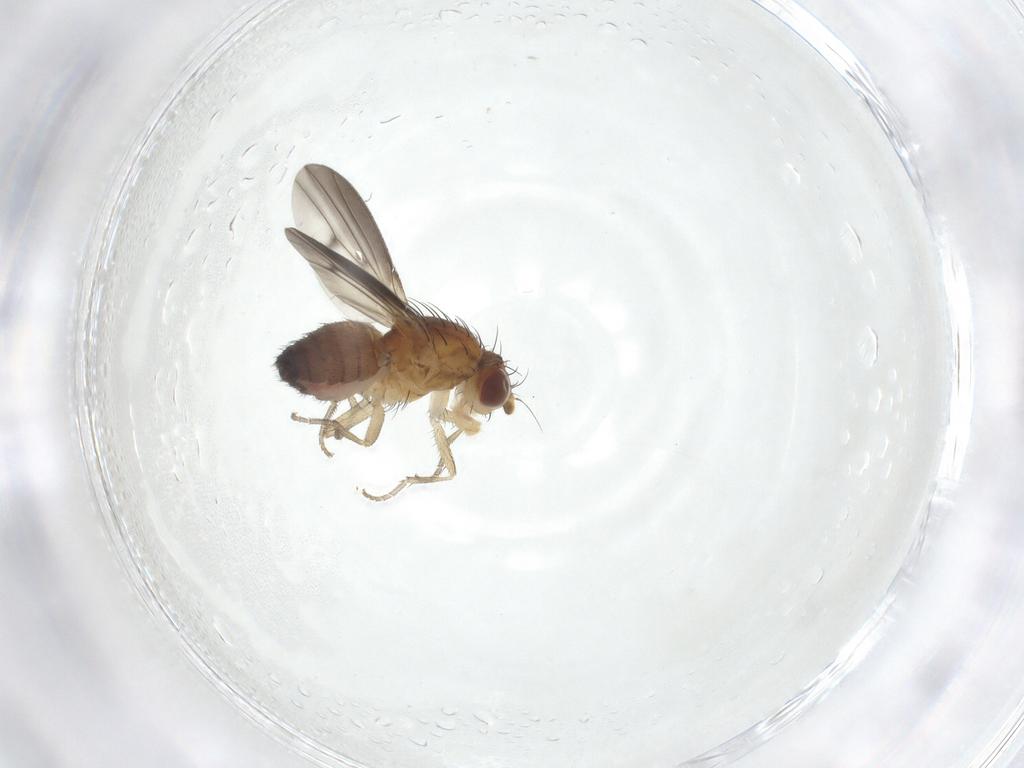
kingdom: Animalia
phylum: Arthropoda
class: Insecta
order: Diptera
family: Heleomyzidae
